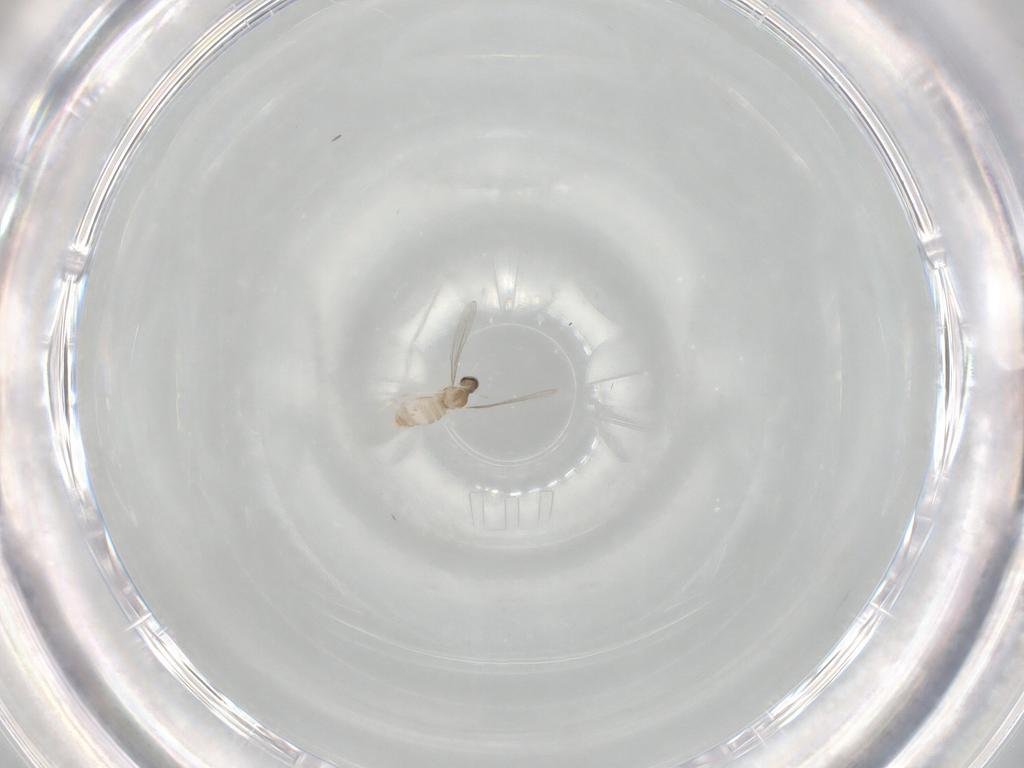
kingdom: Animalia
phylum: Arthropoda
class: Insecta
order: Diptera
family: Cecidomyiidae
